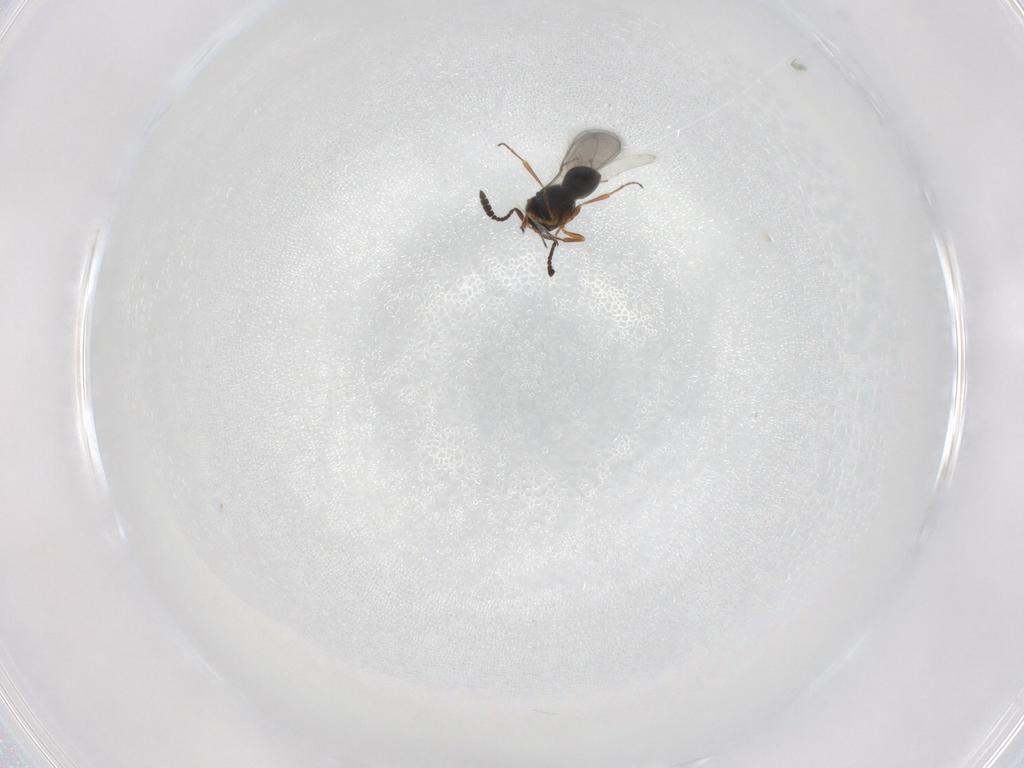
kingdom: Animalia
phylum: Arthropoda
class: Insecta
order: Hymenoptera
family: Scelionidae
